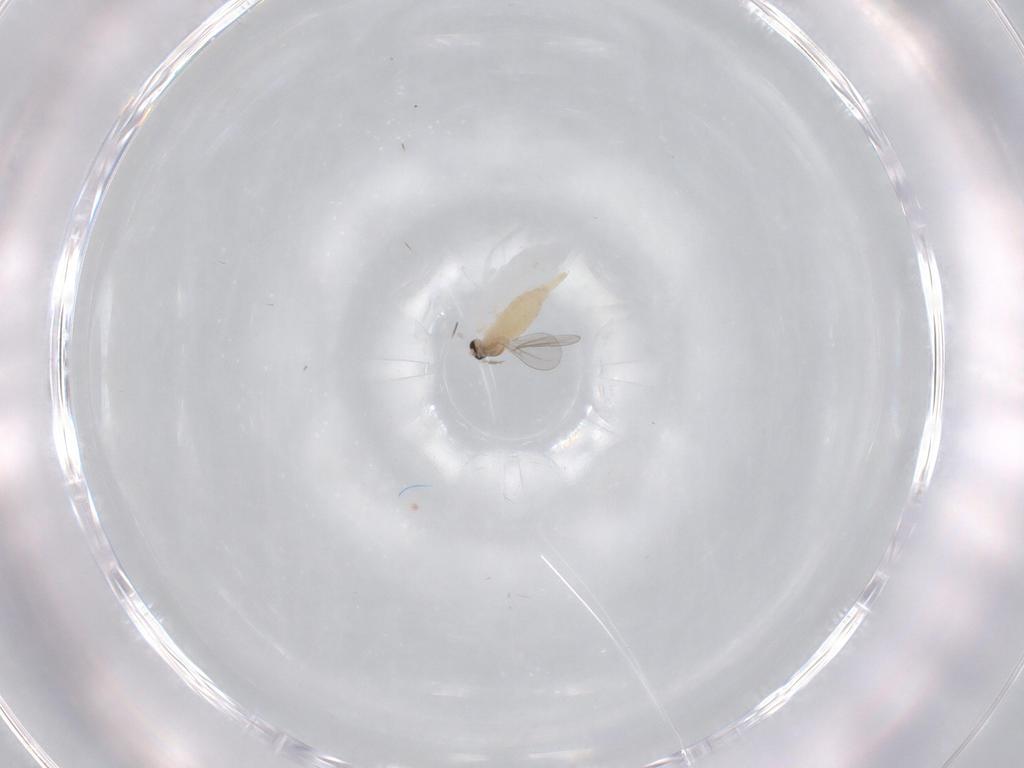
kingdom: Animalia
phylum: Arthropoda
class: Insecta
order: Diptera
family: Cecidomyiidae
